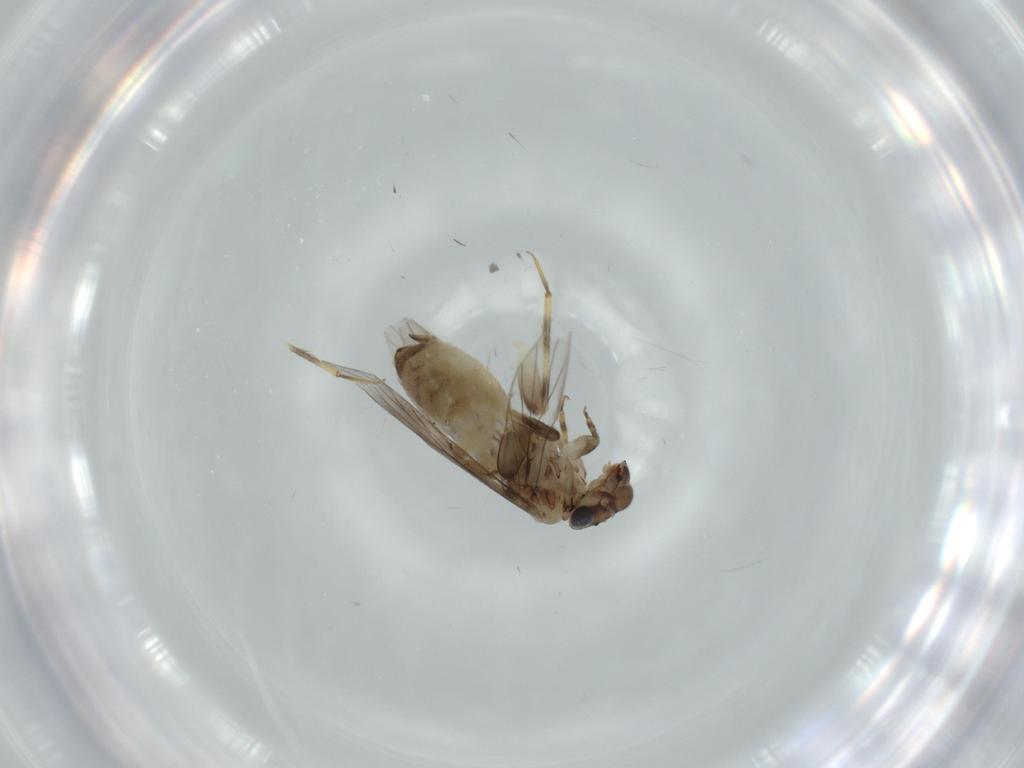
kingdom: Animalia
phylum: Arthropoda
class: Insecta
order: Psocodea
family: Lepidopsocidae
